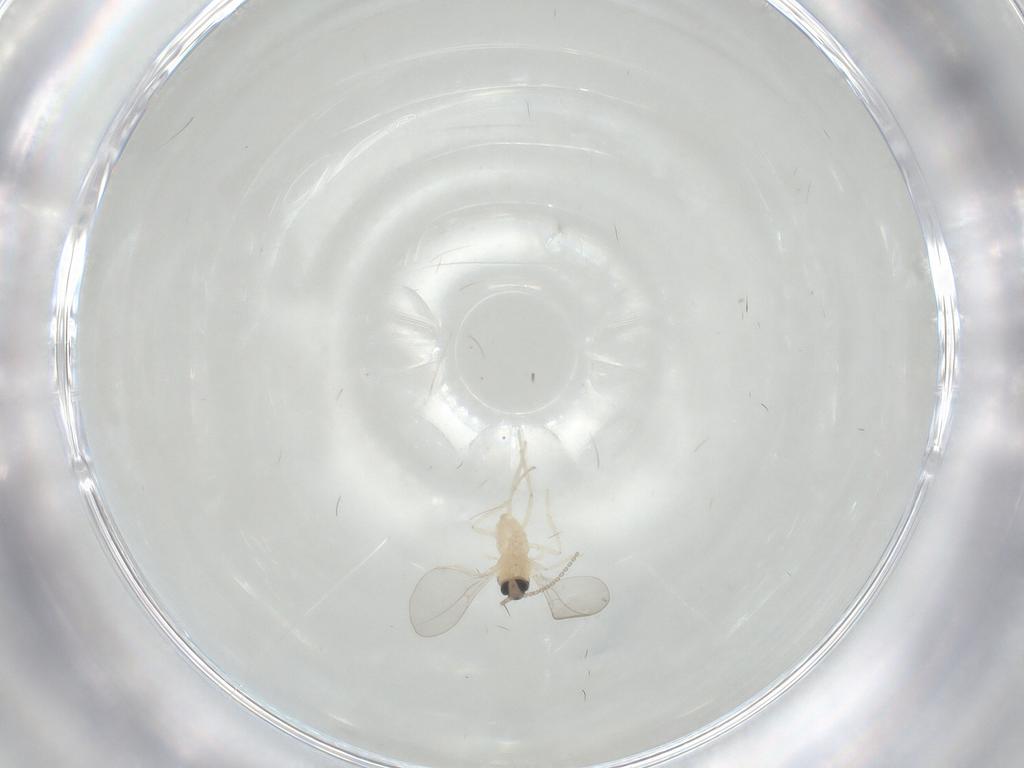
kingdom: Animalia
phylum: Arthropoda
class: Insecta
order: Diptera
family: Cecidomyiidae
